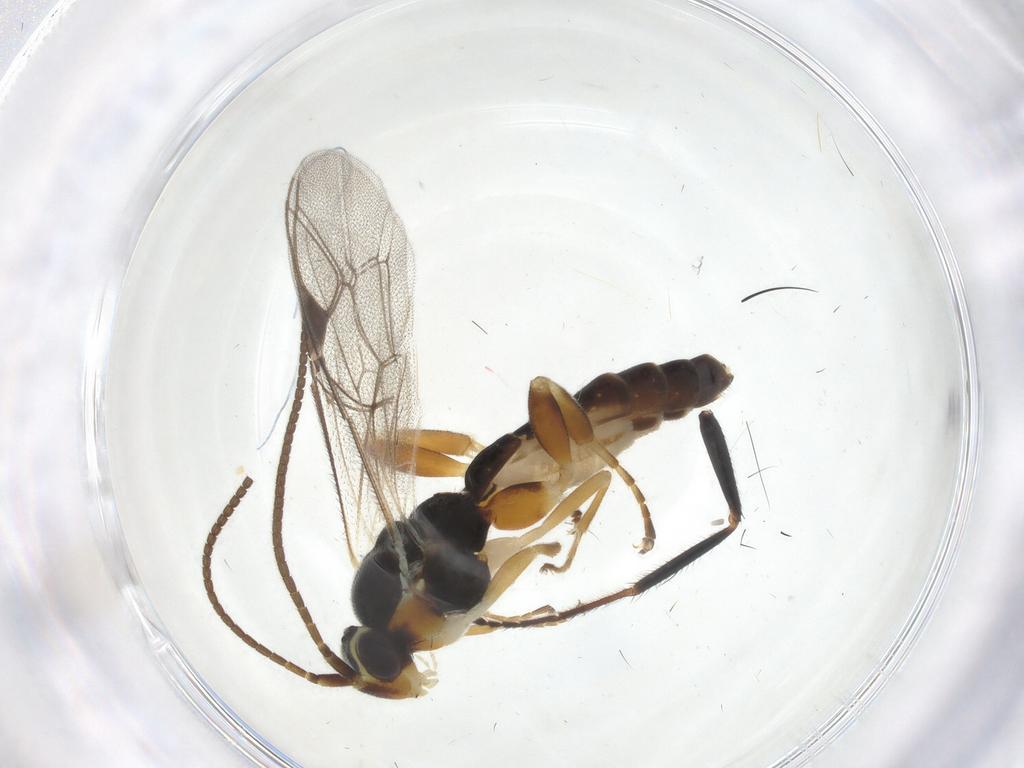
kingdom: Animalia
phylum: Arthropoda
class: Insecta
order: Hymenoptera
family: Ichneumonidae
